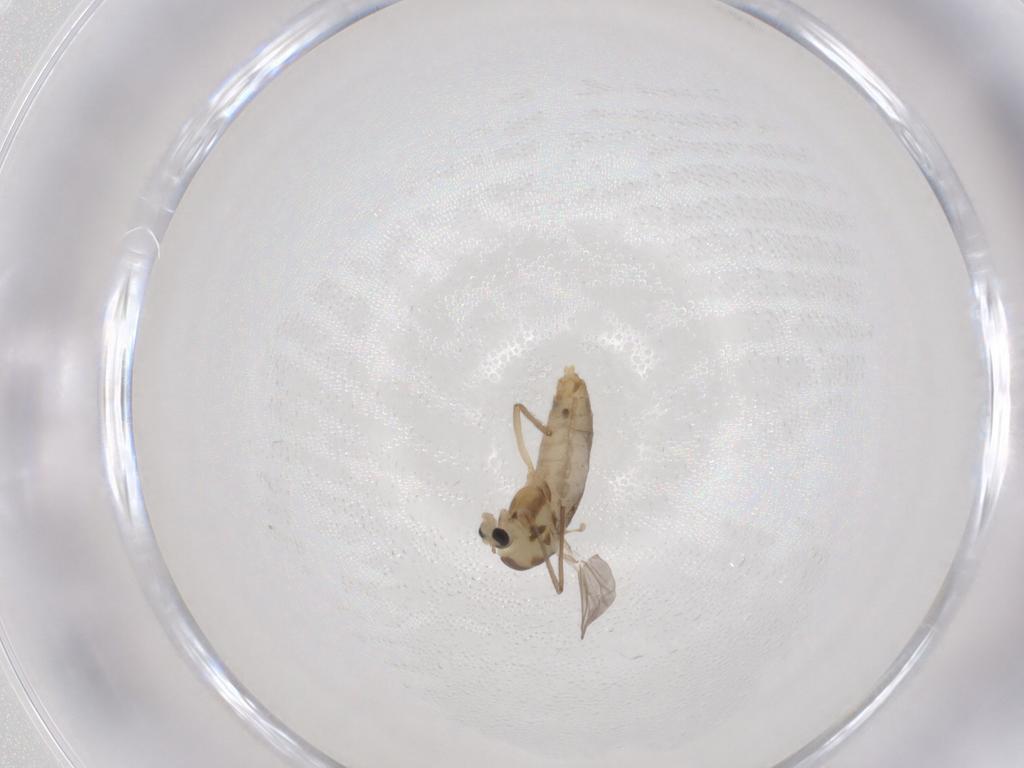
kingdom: Animalia
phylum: Arthropoda
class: Insecta
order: Diptera
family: Chironomidae
